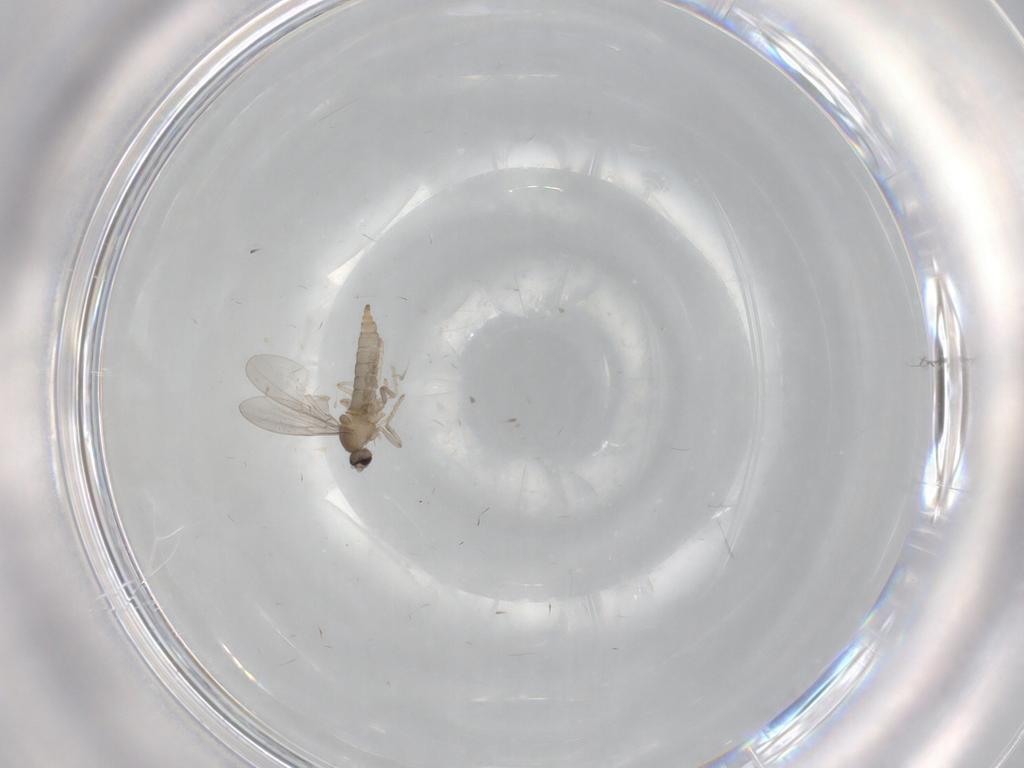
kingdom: Animalia
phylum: Arthropoda
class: Insecta
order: Diptera
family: Cecidomyiidae
